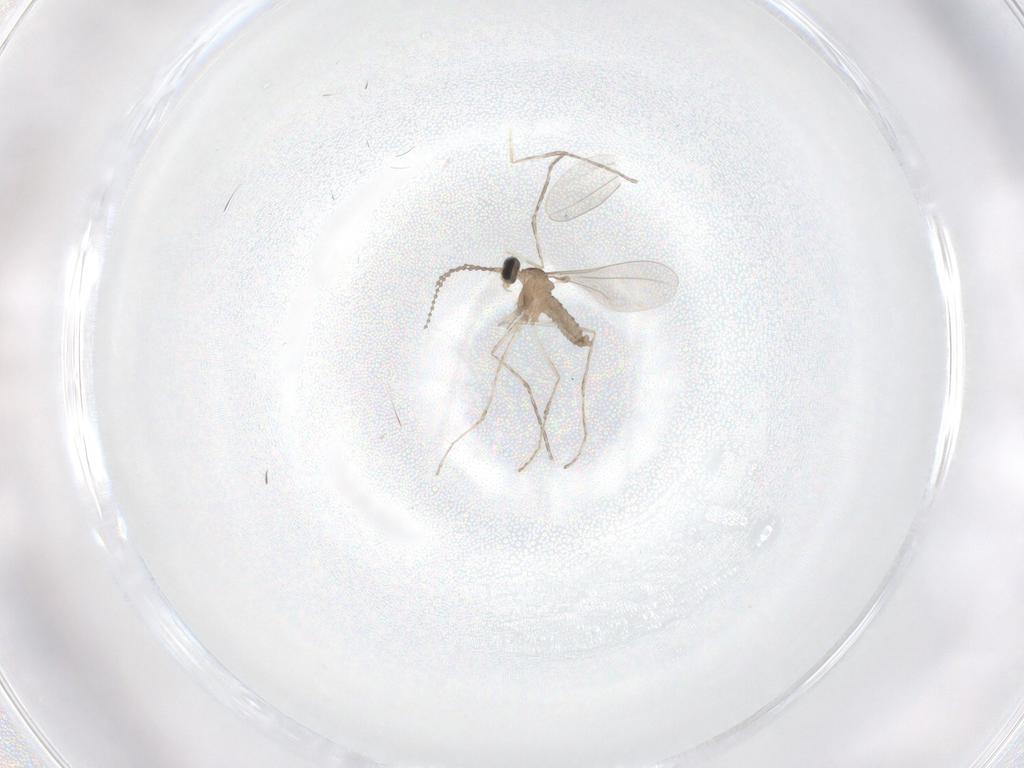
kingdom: Animalia
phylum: Arthropoda
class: Insecta
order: Diptera
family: Cecidomyiidae
